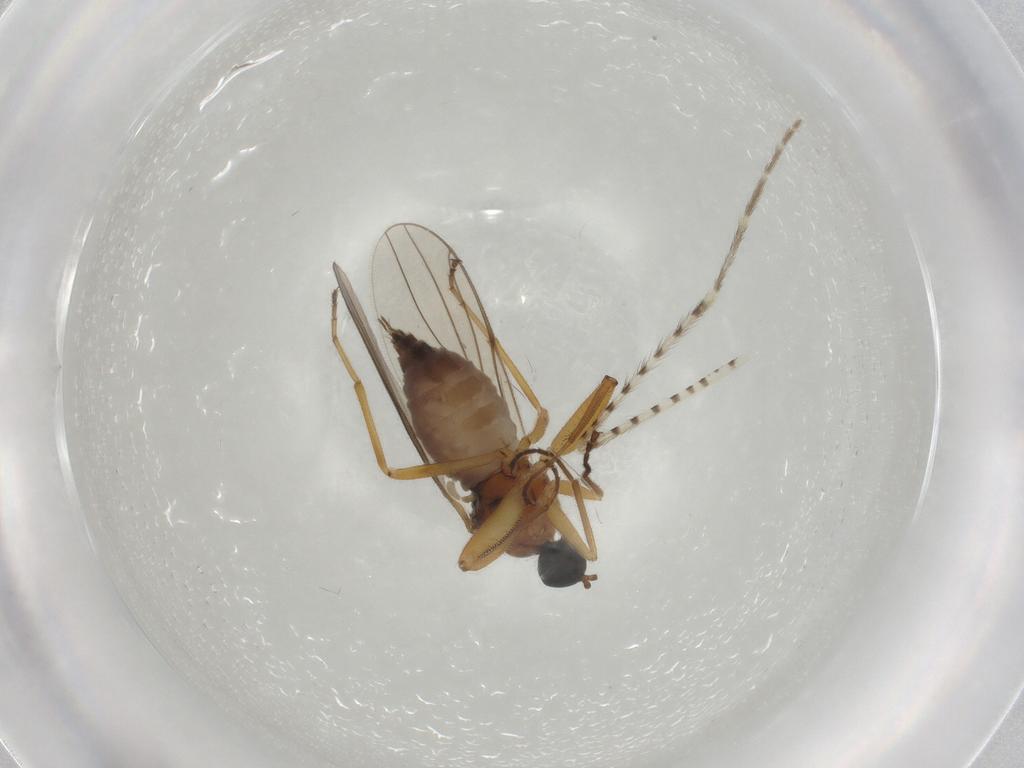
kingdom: Animalia
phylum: Arthropoda
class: Insecta
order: Diptera
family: Hybotidae
